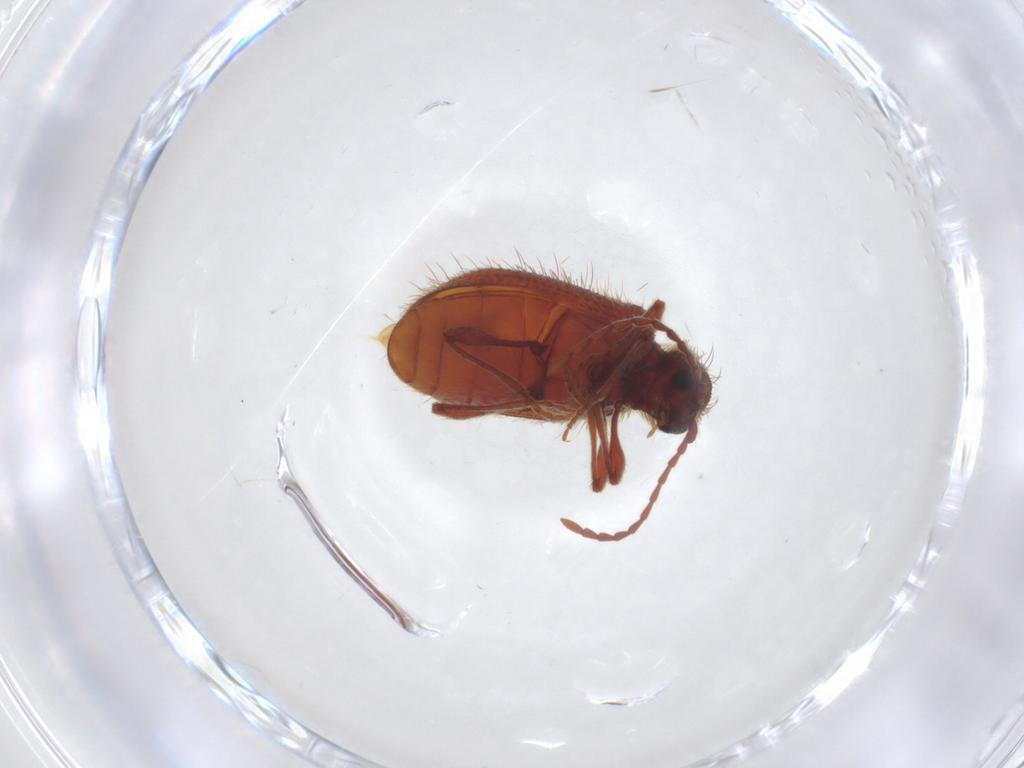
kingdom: Animalia
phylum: Arthropoda
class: Insecta
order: Coleoptera
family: Ptinidae
